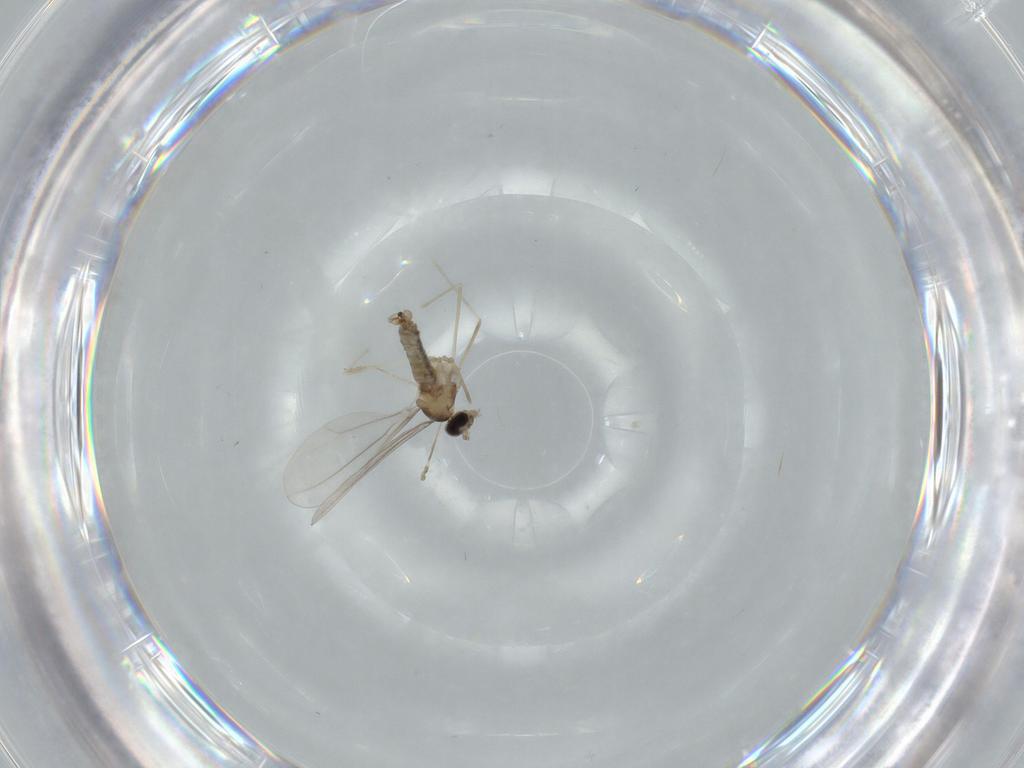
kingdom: Animalia
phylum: Arthropoda
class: Insecta
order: Diptera
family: Cecidomyiidae
